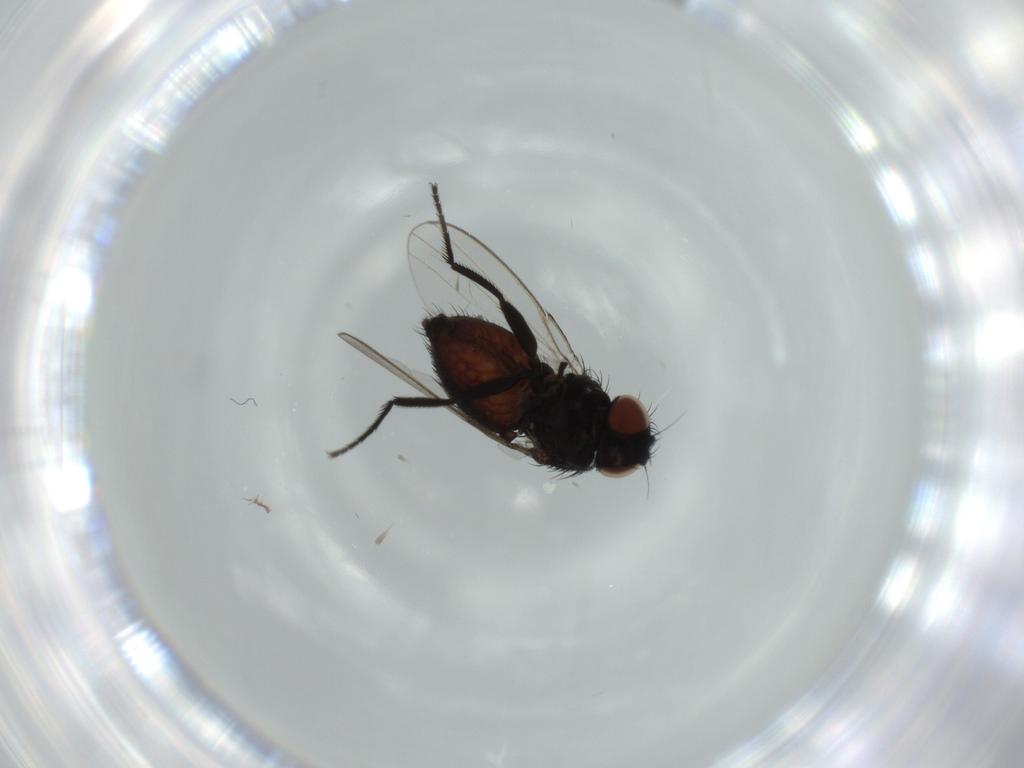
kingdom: Animalia
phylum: Arthropoda
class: Insecta
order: Diptera
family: Milichiidae
